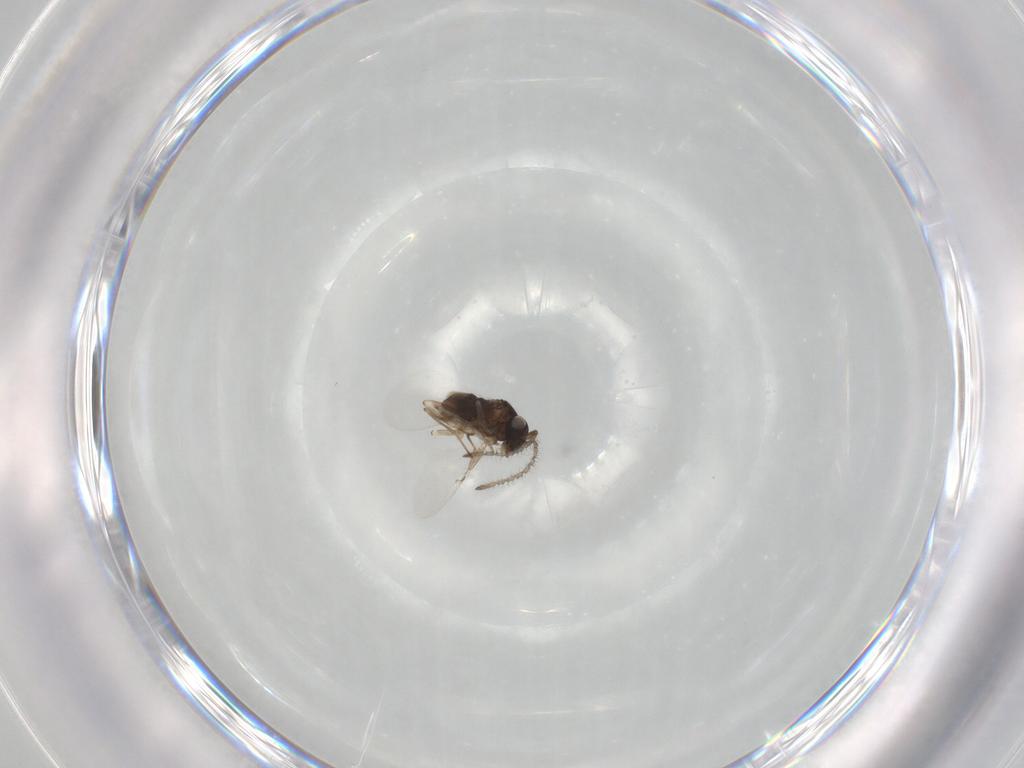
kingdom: Animalia
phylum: Arthropoda
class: Insecta
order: Hymenoptera
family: Encyrtidae
